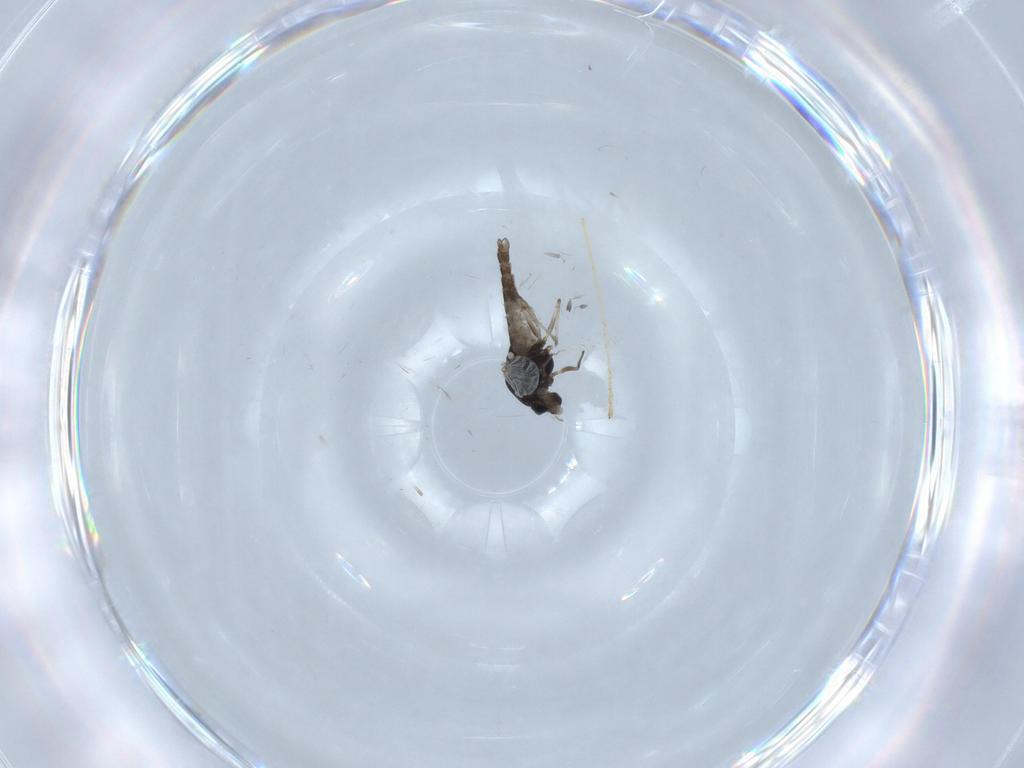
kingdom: Animalia
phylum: Arthropoda
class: Insecta
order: Diptera
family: Chironomidae
